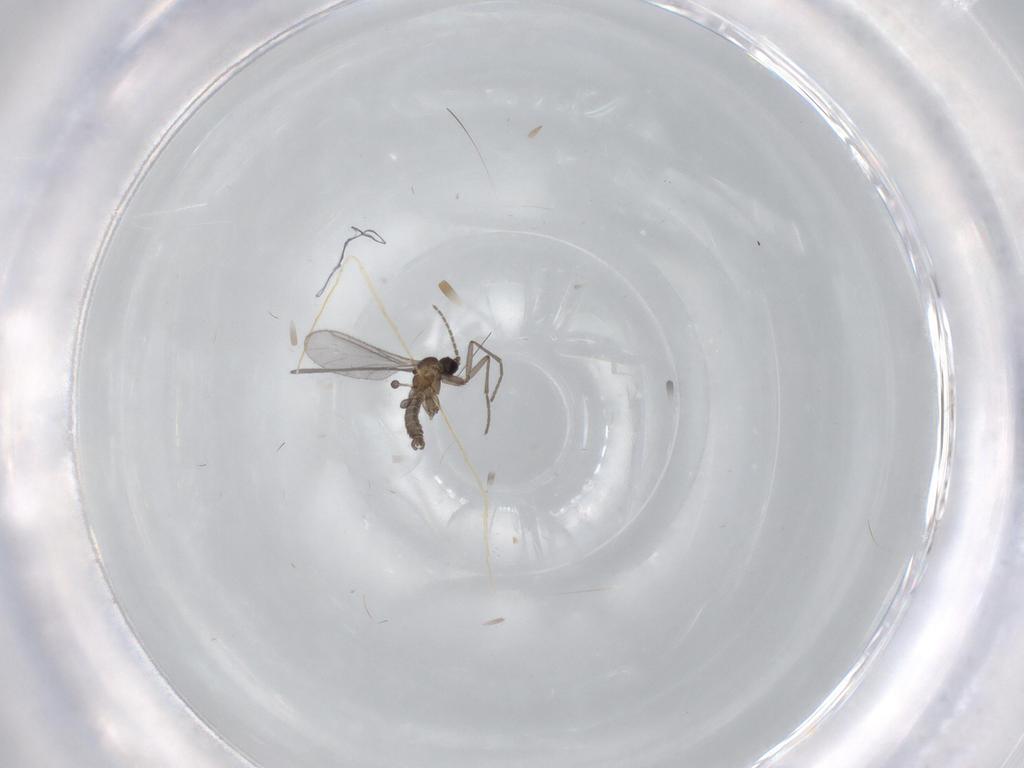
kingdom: Animalia
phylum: Arthropoda
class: Insecta
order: Diptera
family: Sciaridae
